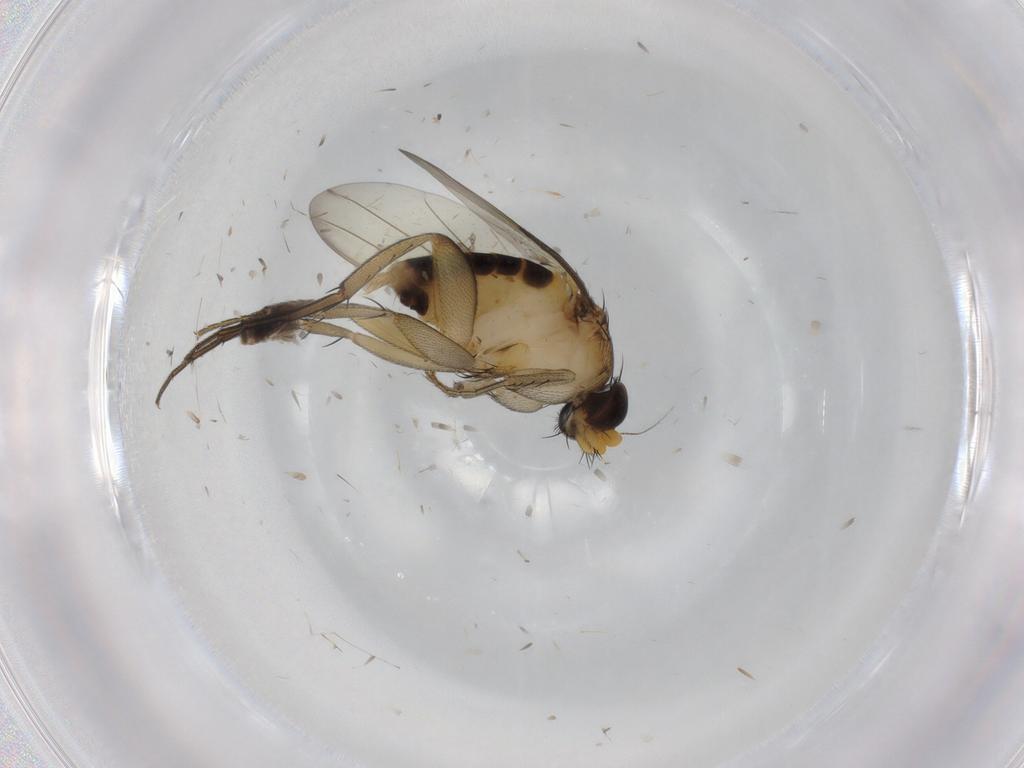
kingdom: Animalia
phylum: Arthropoda
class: Insecta
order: Diptera
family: Phoridae
